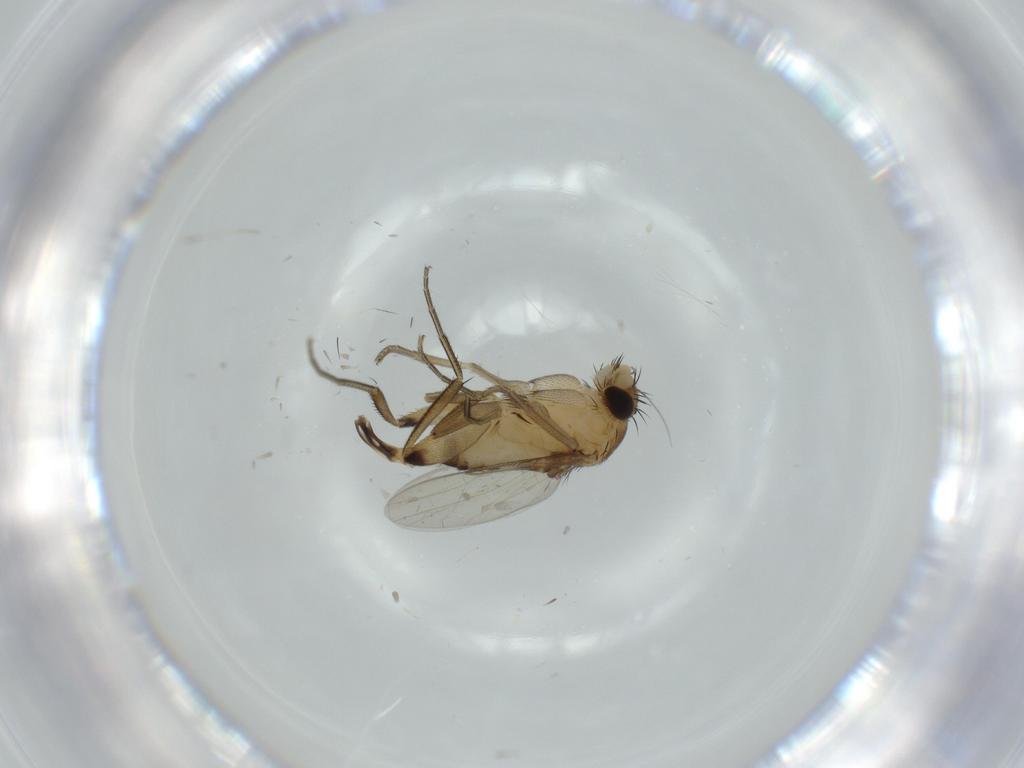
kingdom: Animalia
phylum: Arthropoda
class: Insecta
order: Diptera
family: Phoridae
